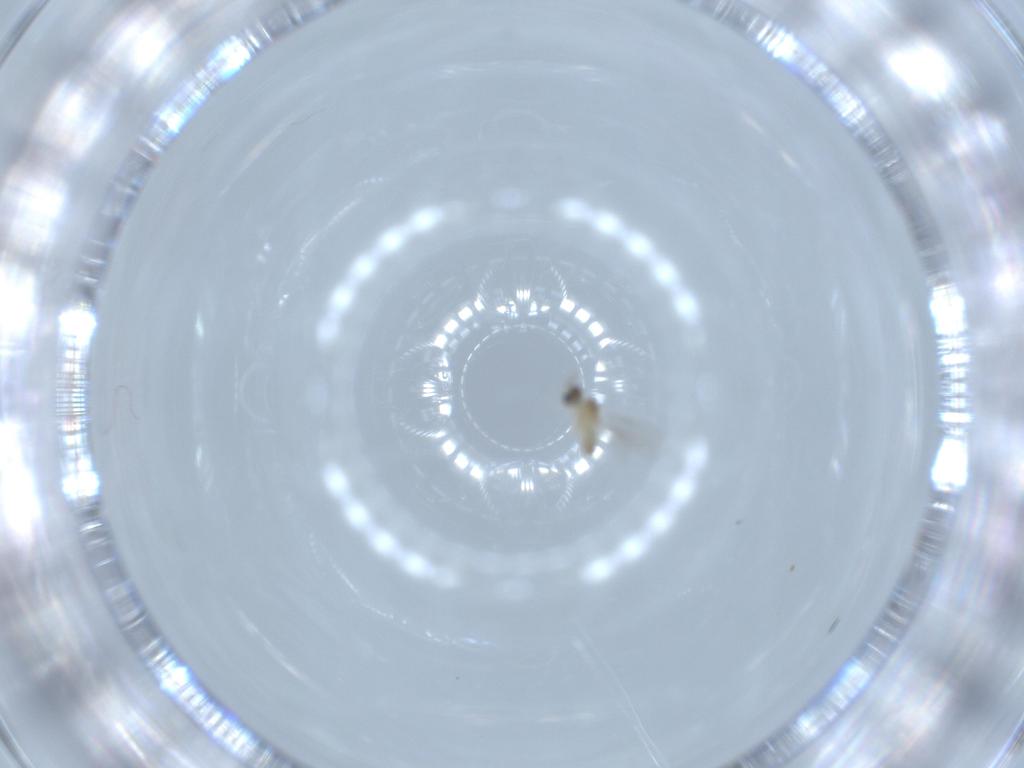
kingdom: Animalia
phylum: Arthropoda
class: Insecta
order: Diptera
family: Cecidomyiidae
